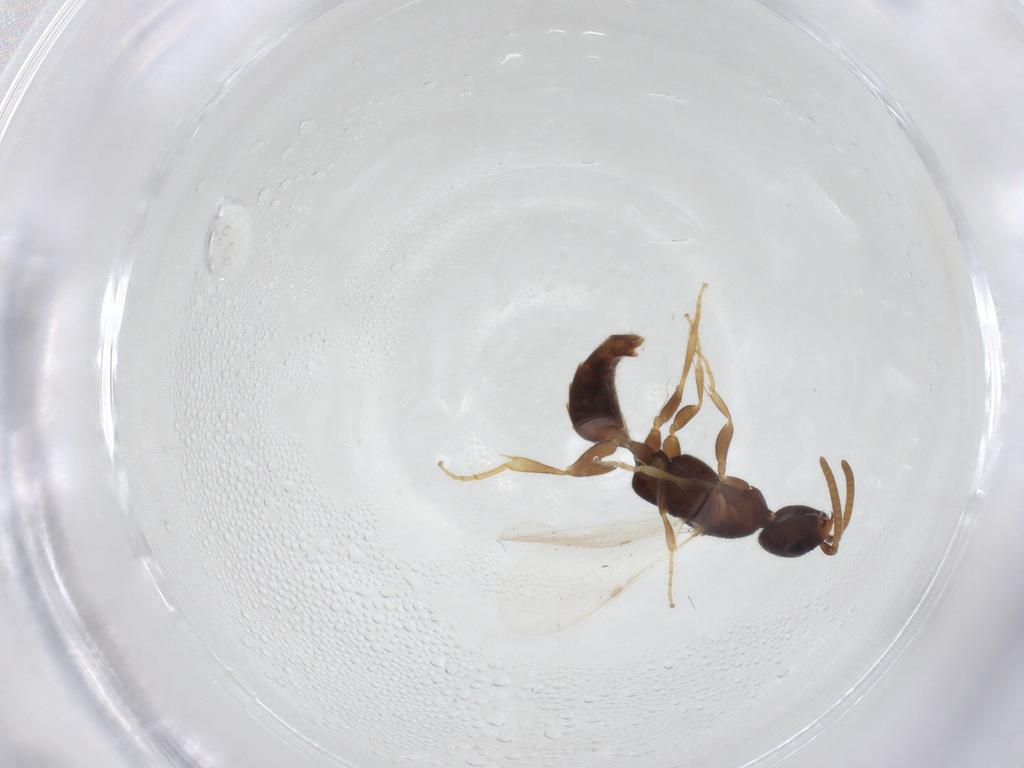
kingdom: Animalia
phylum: Arthropoda
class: Insecta
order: Hymenoptera
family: Bethylidae
